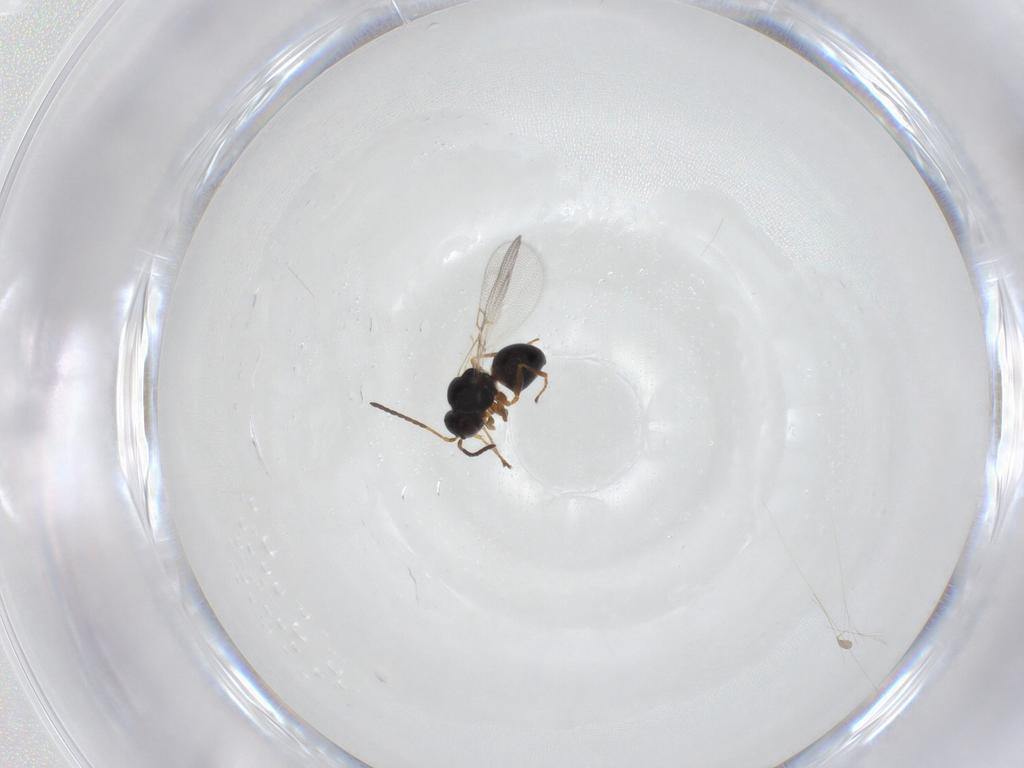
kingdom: Animalia
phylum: Arthropoda
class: Insecta
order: Hymenoptera
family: Figitidae
